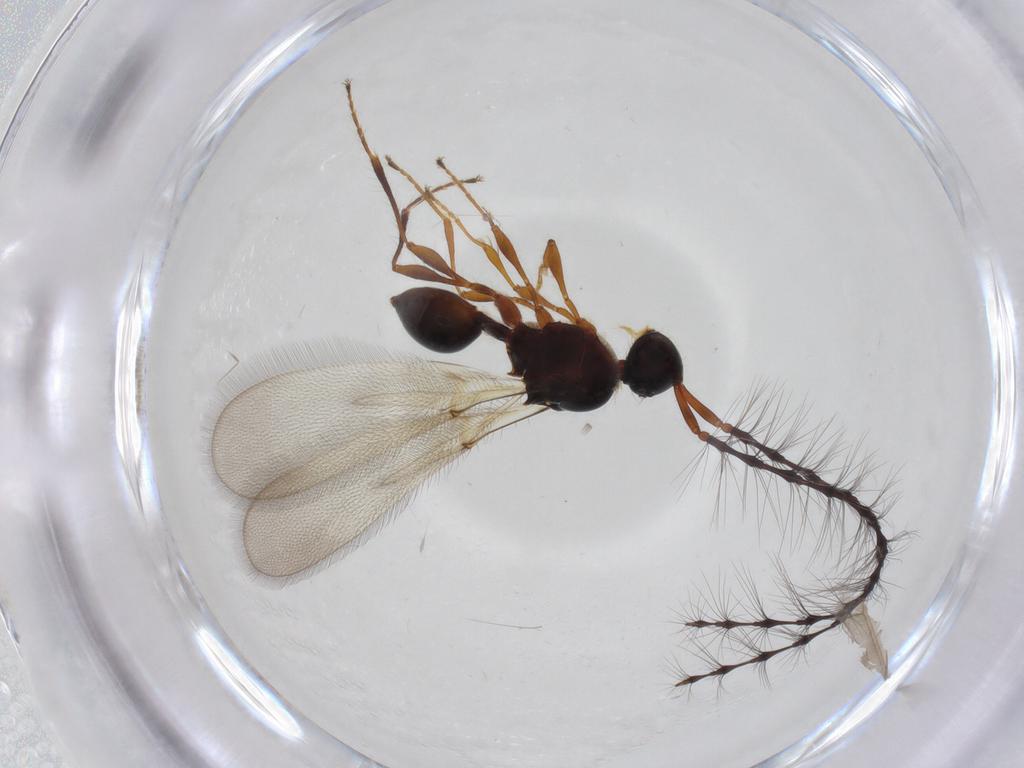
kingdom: Animalia
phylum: Arthropoda
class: Insecta
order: Hymenoptera
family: Diapriidae
